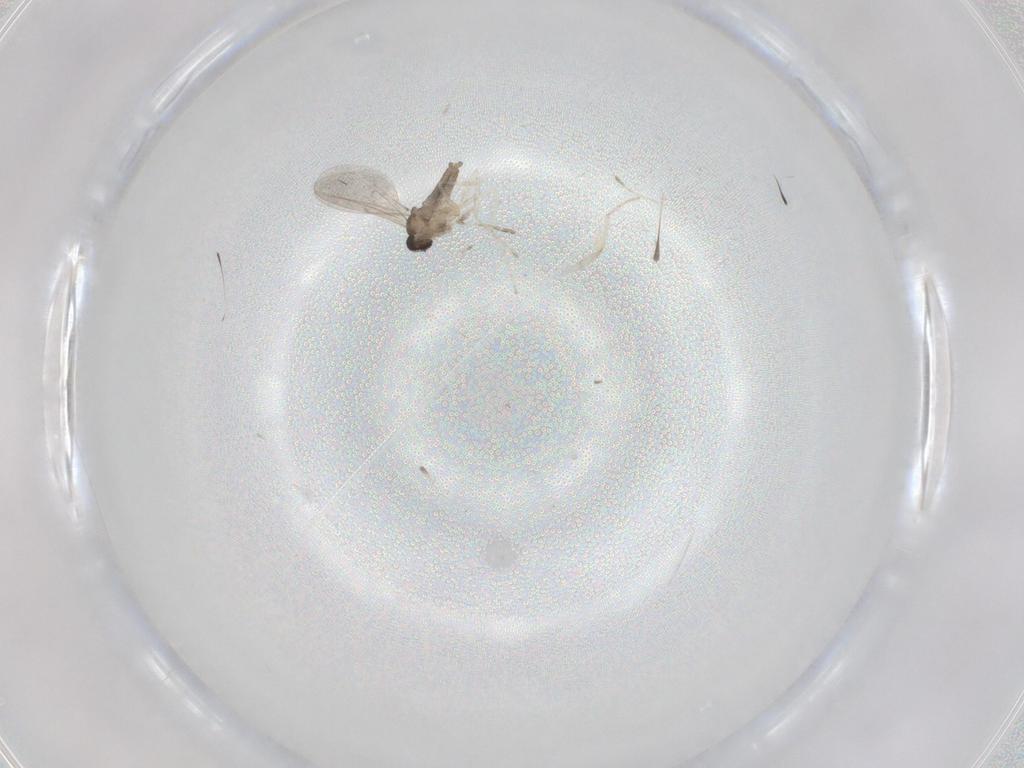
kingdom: Animalia
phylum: Arthropoda
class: Insecta
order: Diptera
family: Cecidomyiidae
